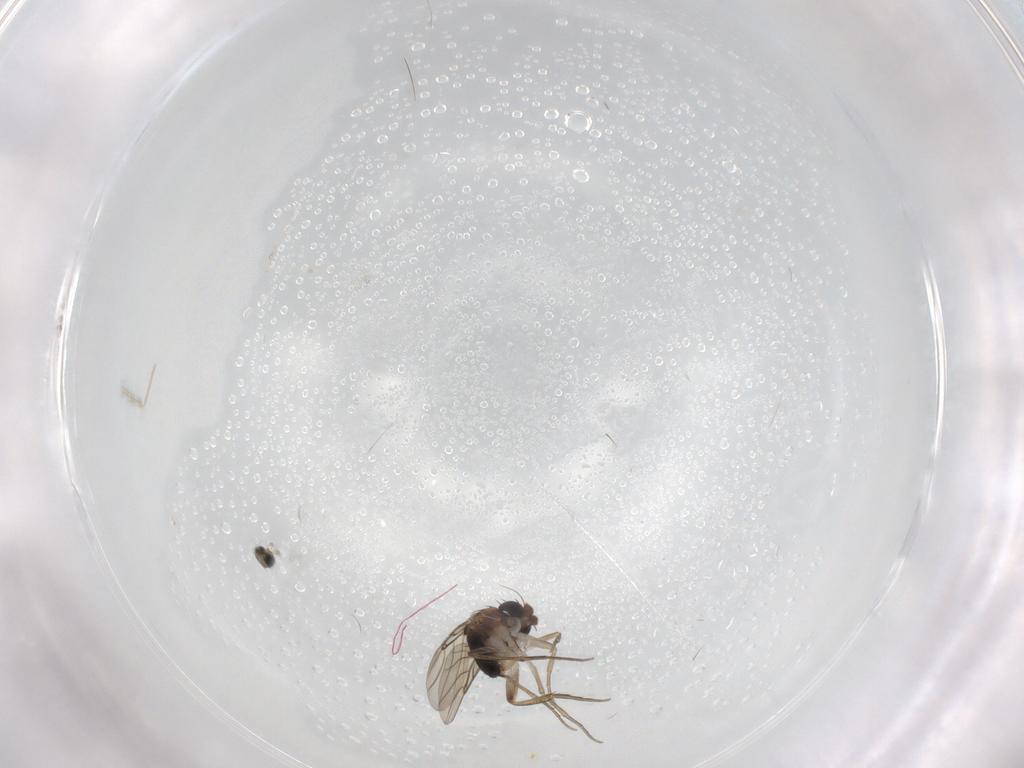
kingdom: Animalia
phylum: Arthropoda
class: Insecta
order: Diptera
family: Phoridae
